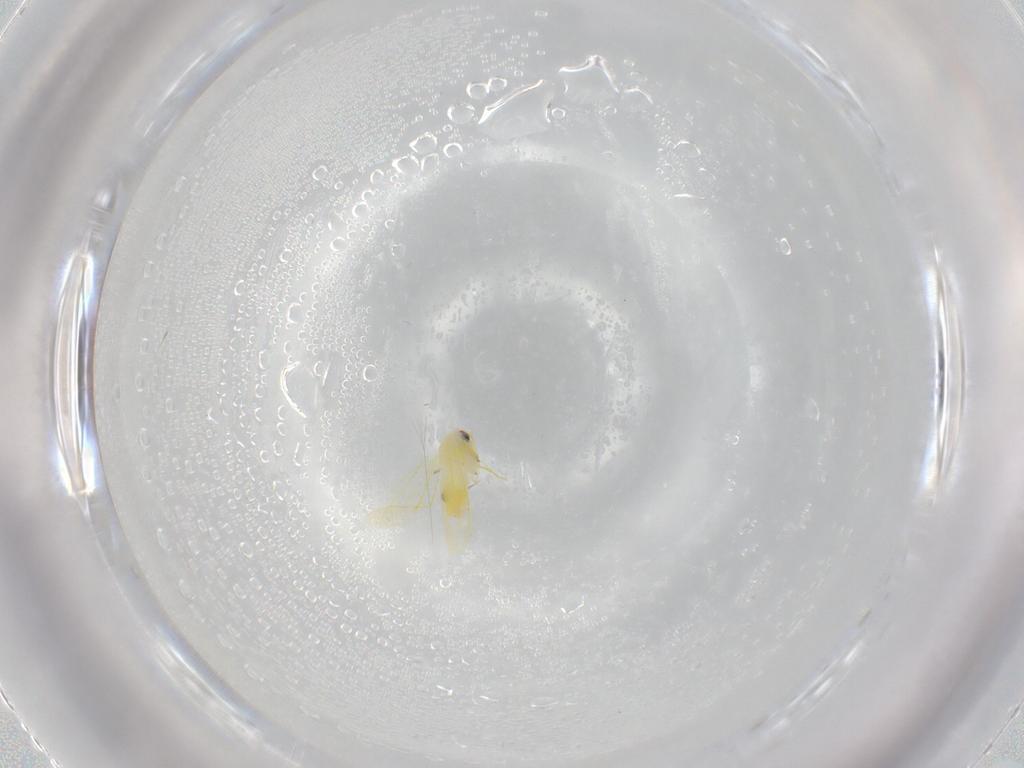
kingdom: Animalia
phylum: Arthropoda
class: Insecta
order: Hemiptera
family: Aleyrodidae
